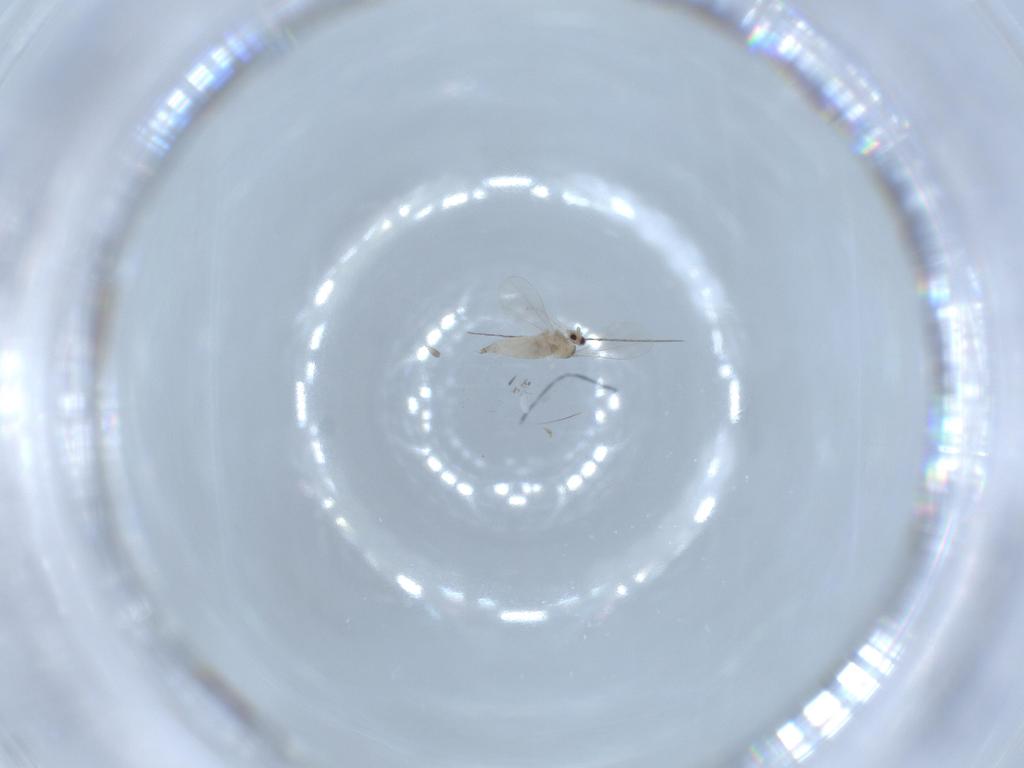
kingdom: Animalia
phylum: Arthropoda
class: Insecta
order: Diptera
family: Cecidomyiidae
